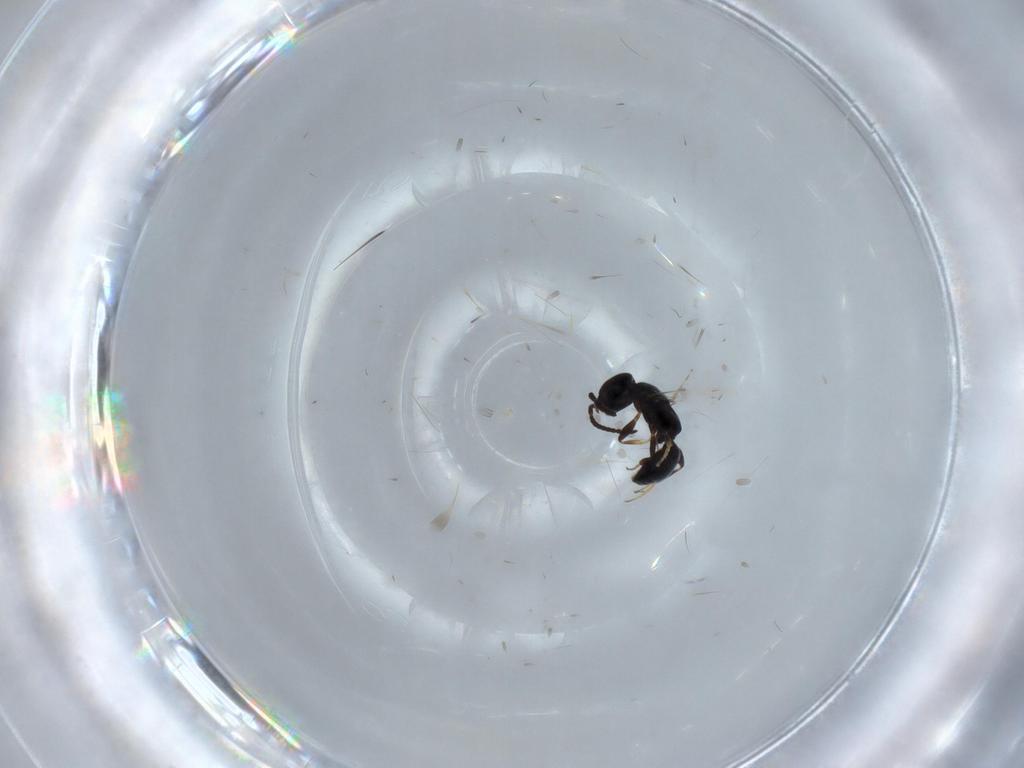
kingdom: Animalia
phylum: Arthropoda
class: Insecta
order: Hymenoptera
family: Bethylidae
